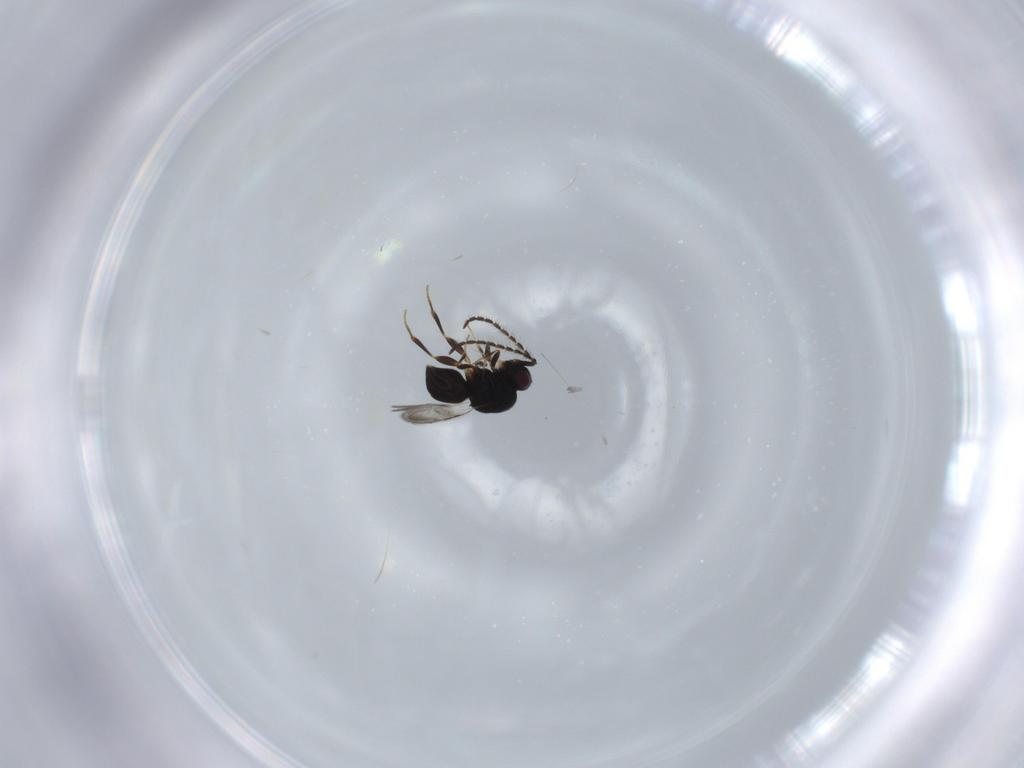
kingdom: Animalia
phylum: Arthropoda
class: Insecta
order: Hymenoptera
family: Ceraphronidae
